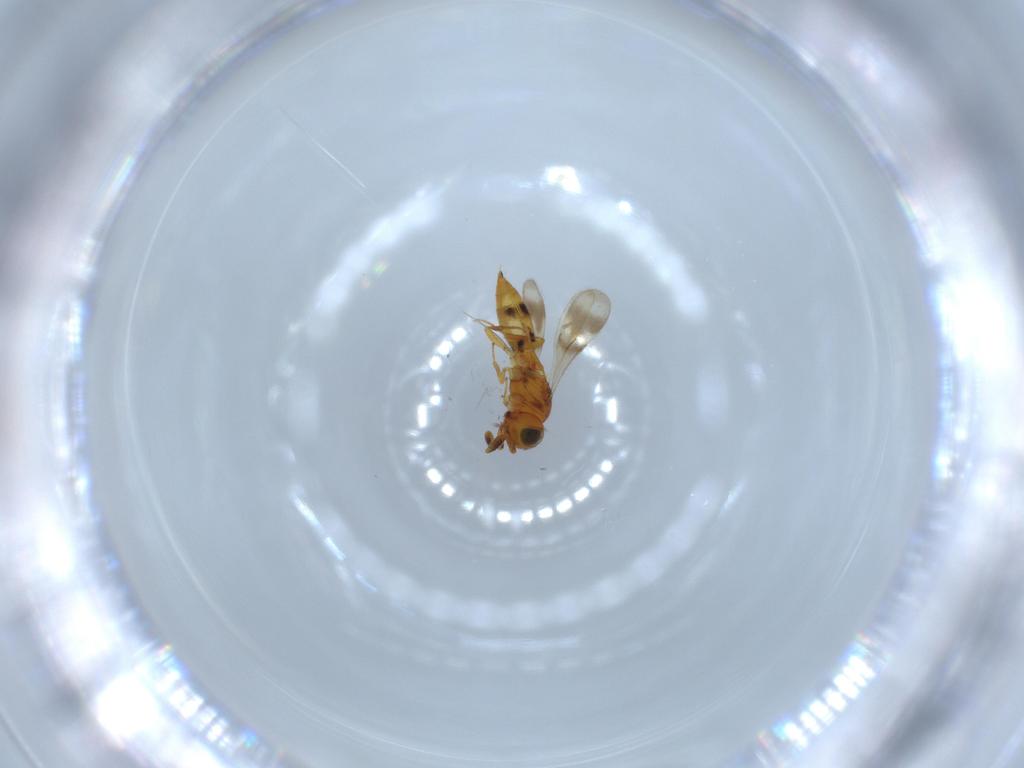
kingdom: Animalia
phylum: Arthropoda
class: Insecta
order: Hymenoptera
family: Scelionidae
